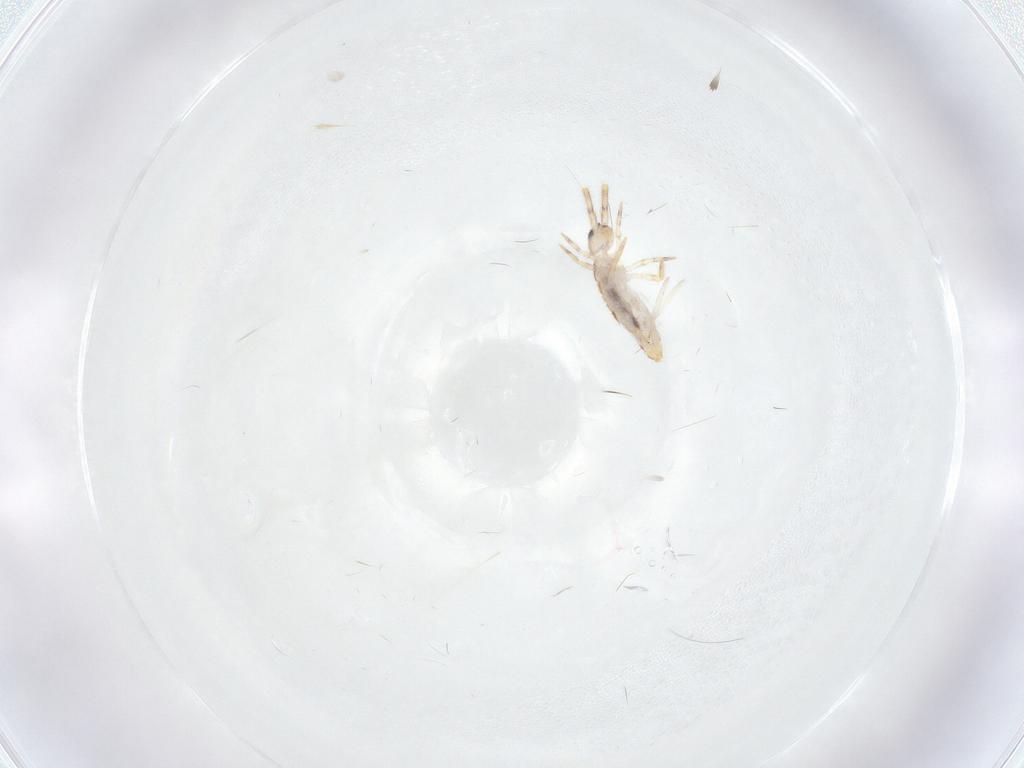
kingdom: Animalia
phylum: Arthropoda
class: Collembola
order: Entomobryomorpha
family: Entomobryidae
